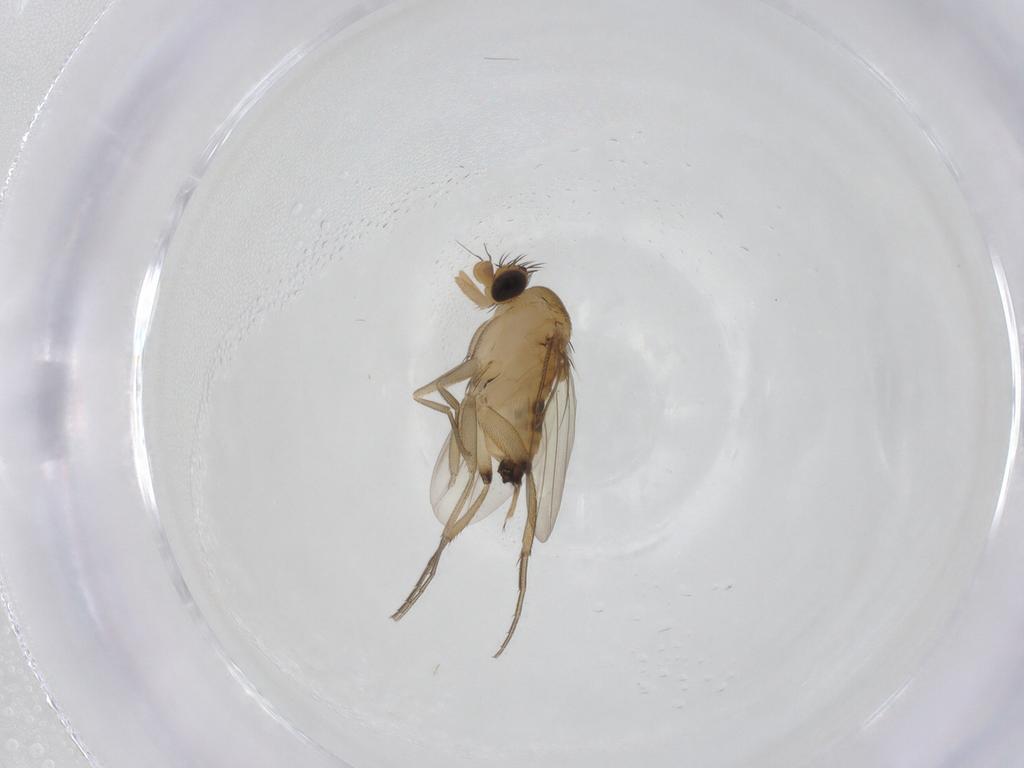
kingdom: Animalia
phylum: Arthropoda
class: Insecta
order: Diptera
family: Phoridae
